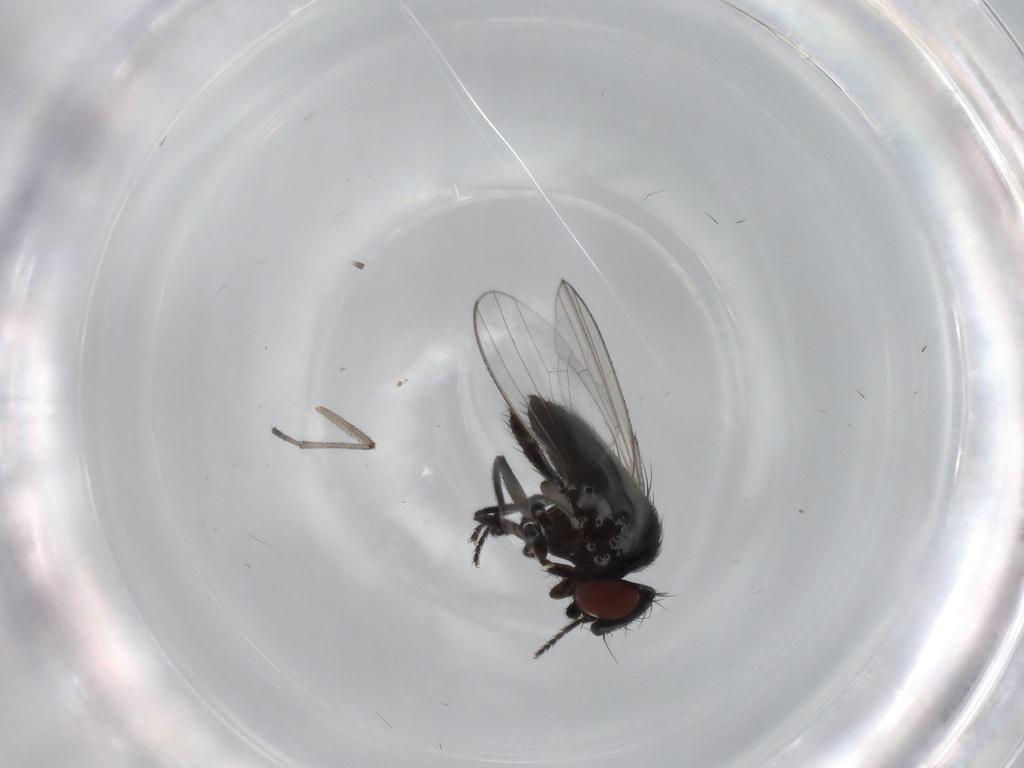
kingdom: Animalia
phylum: Arthropoda
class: Insecta
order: Diptera
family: Milichiidae
